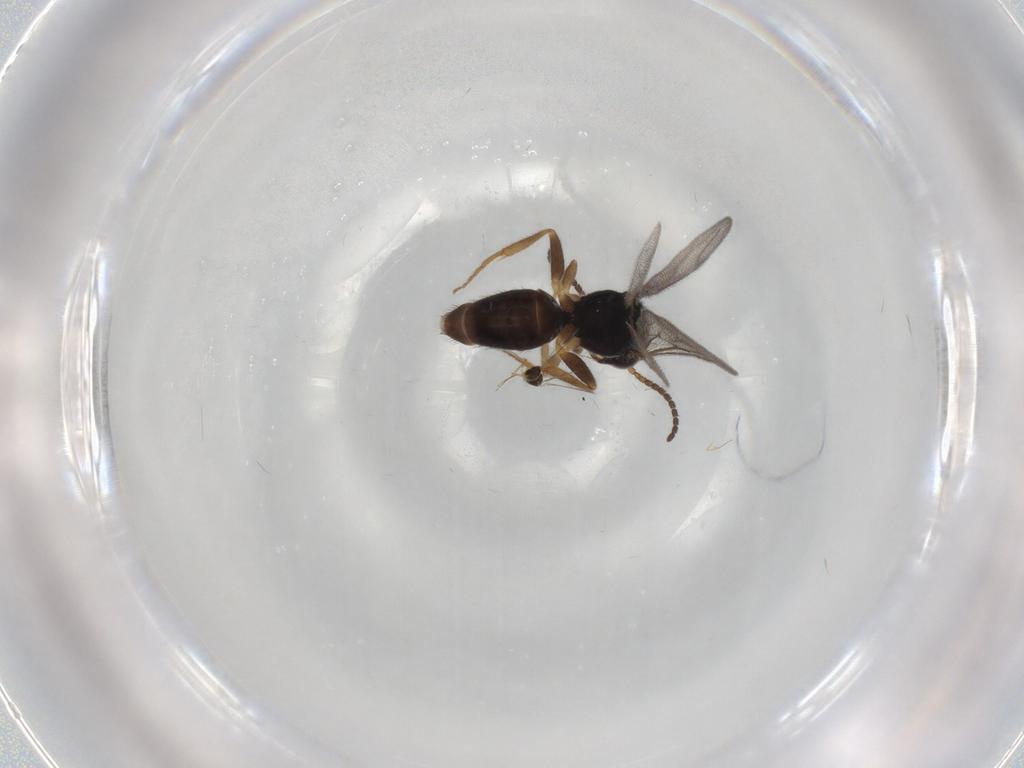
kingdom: Animalia
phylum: Arthropoda
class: Insecta
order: Hymenoptera
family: Bethylidae
